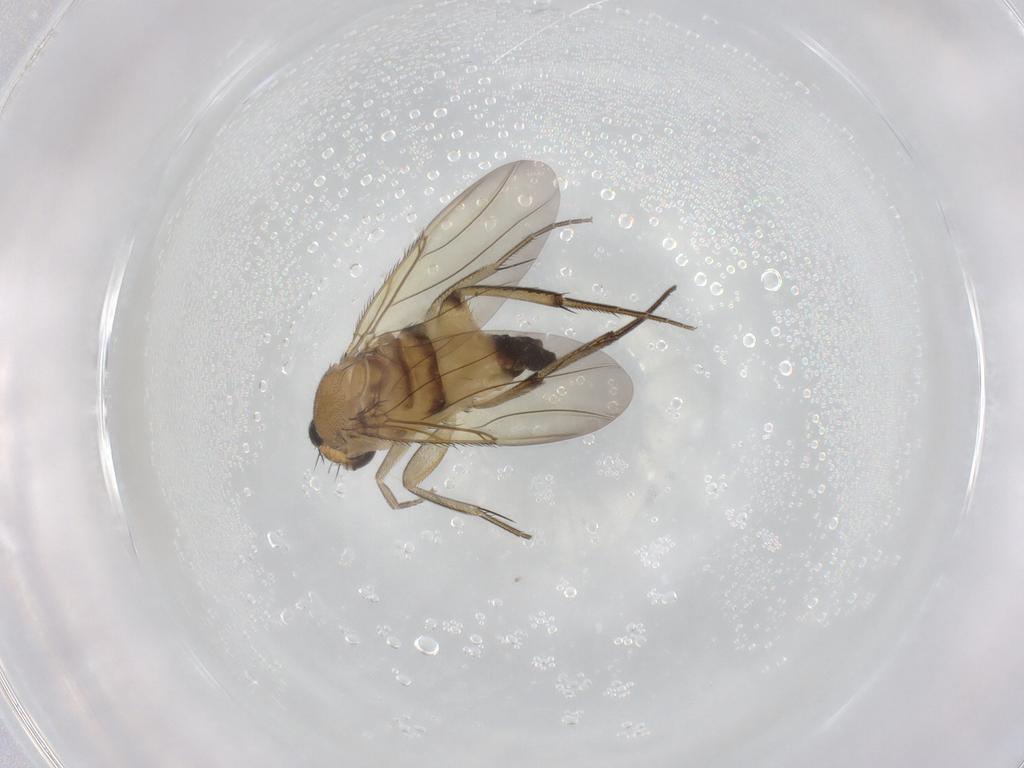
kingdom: Animalia
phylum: Arthropoda
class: Insecta
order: Diptera
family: Phoridae
